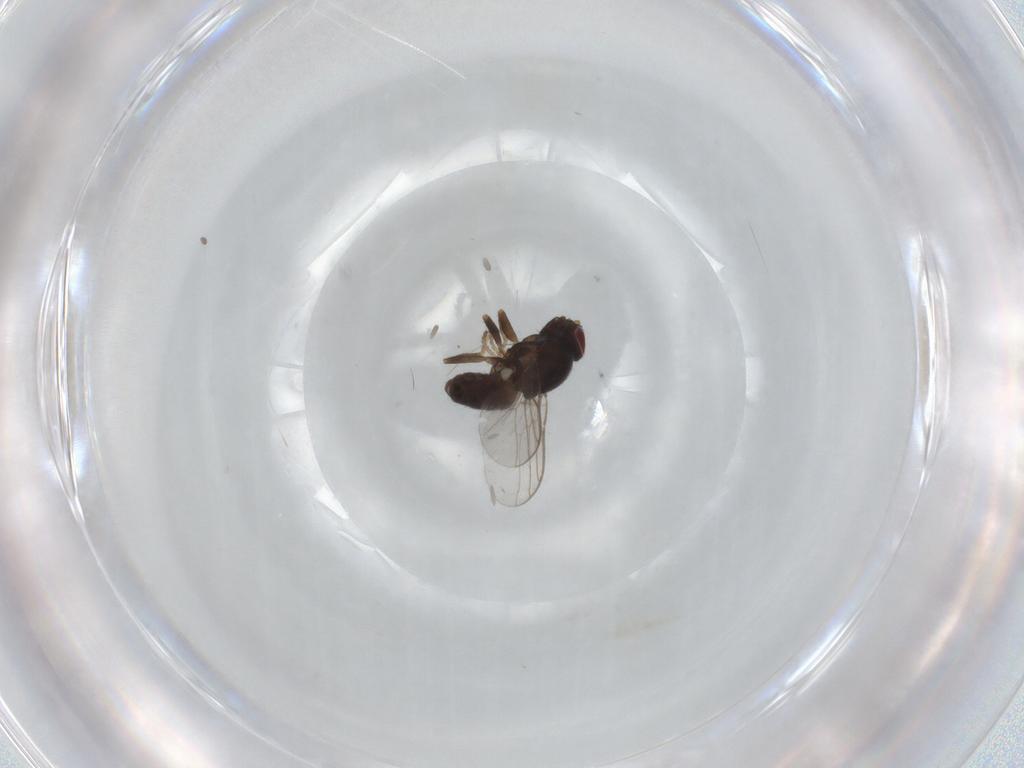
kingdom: Animalia
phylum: Arthropoda
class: Insecta
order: Diptera
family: Chloropidae
